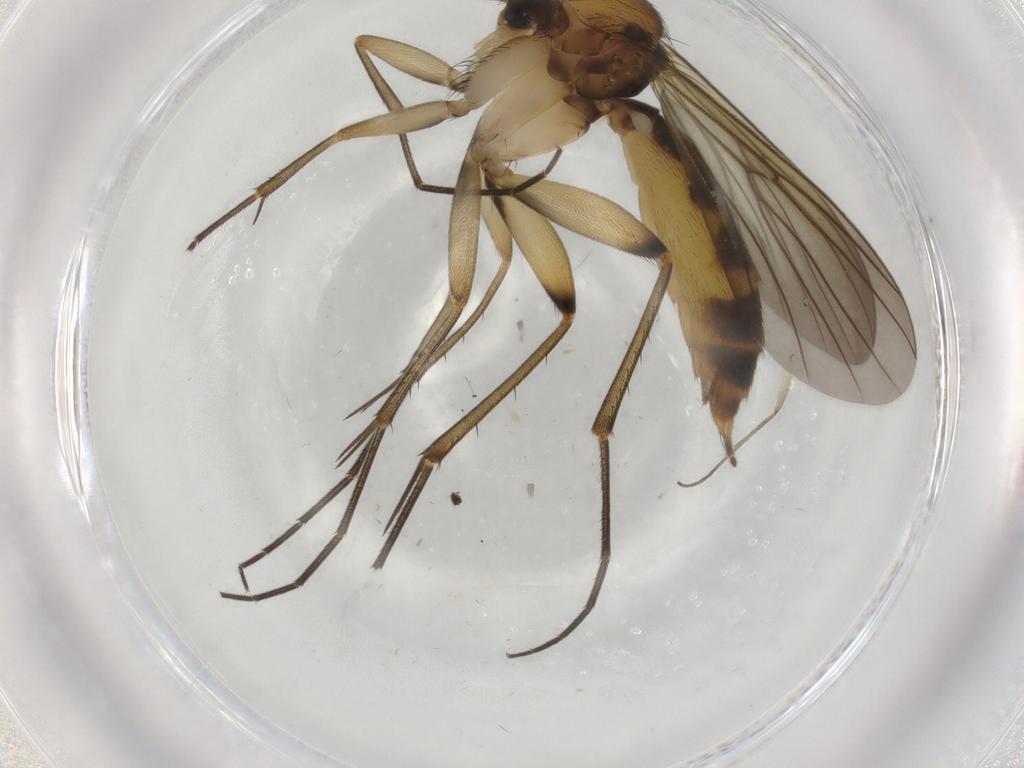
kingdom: Animalia
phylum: Arthropoda
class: Insecta
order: Diptera
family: Mycetophilidae
